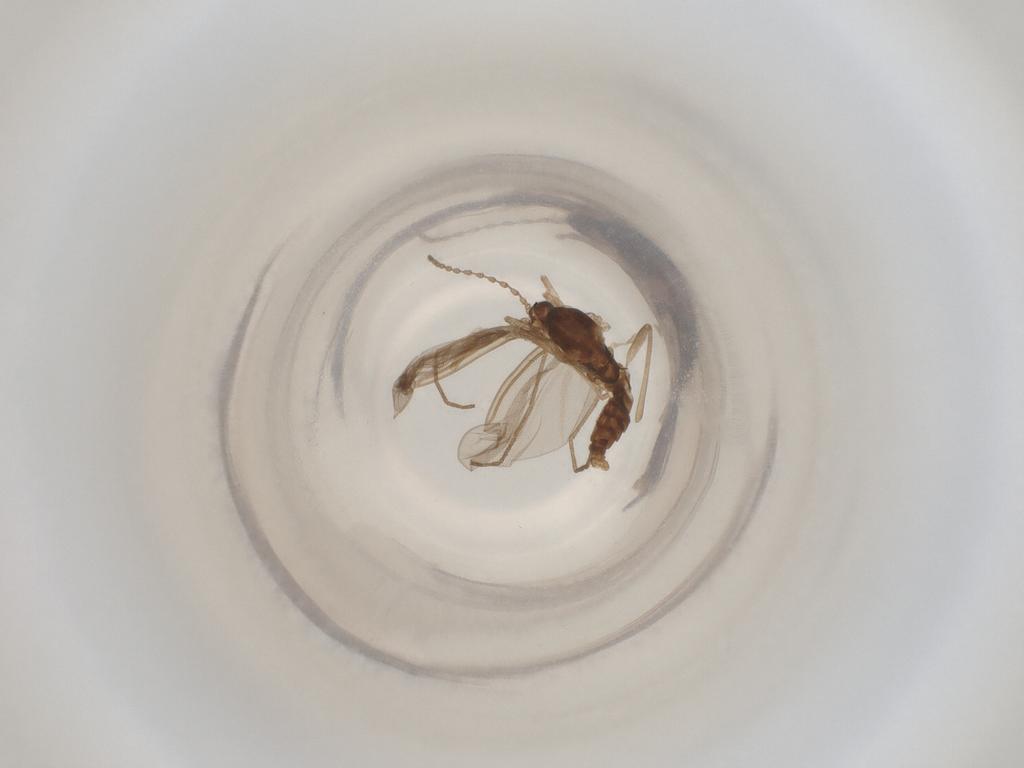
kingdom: Animalia
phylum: Arthropoda
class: Insecta
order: Diptera
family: Cecidomyiidae
